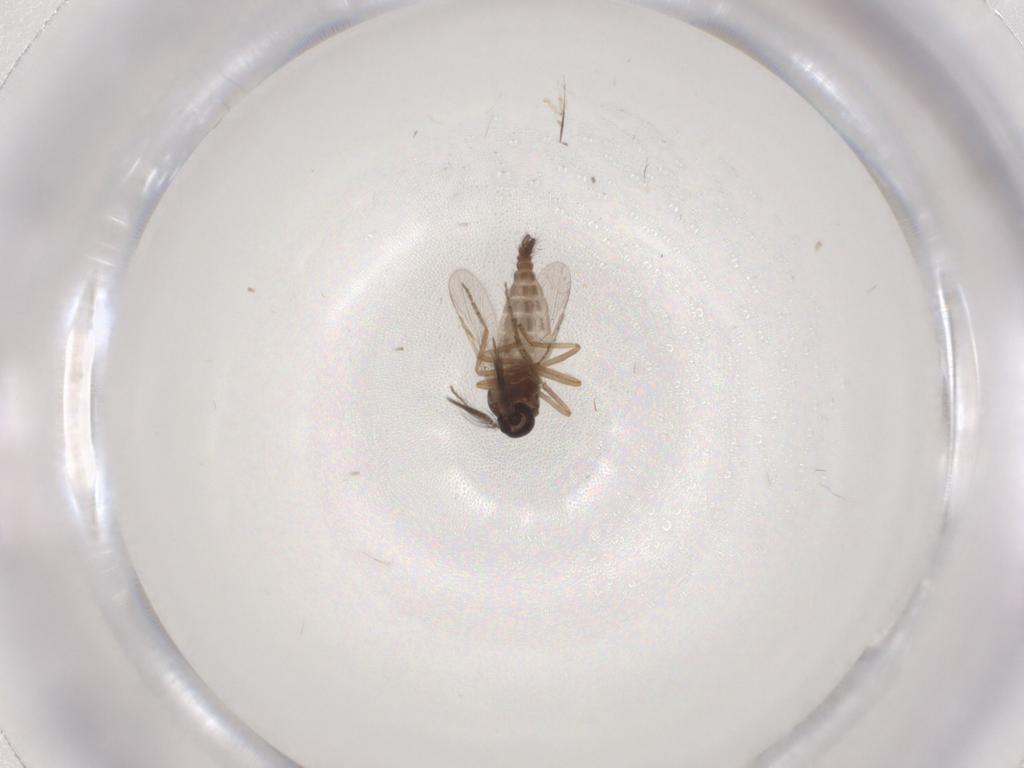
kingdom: Animalia
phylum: Arthropoda
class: Insecta
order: Diptera
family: Ceratopogonidae
